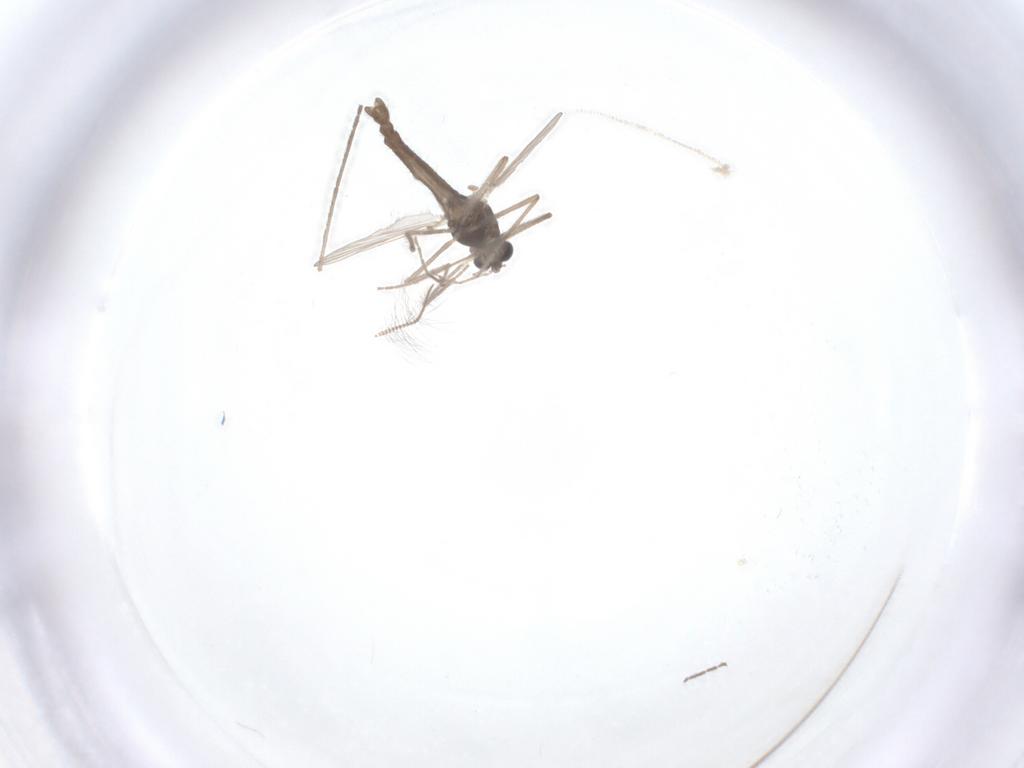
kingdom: Animalia
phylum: Arthropoda
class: Insecta
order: Diptera
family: Chironomidae
